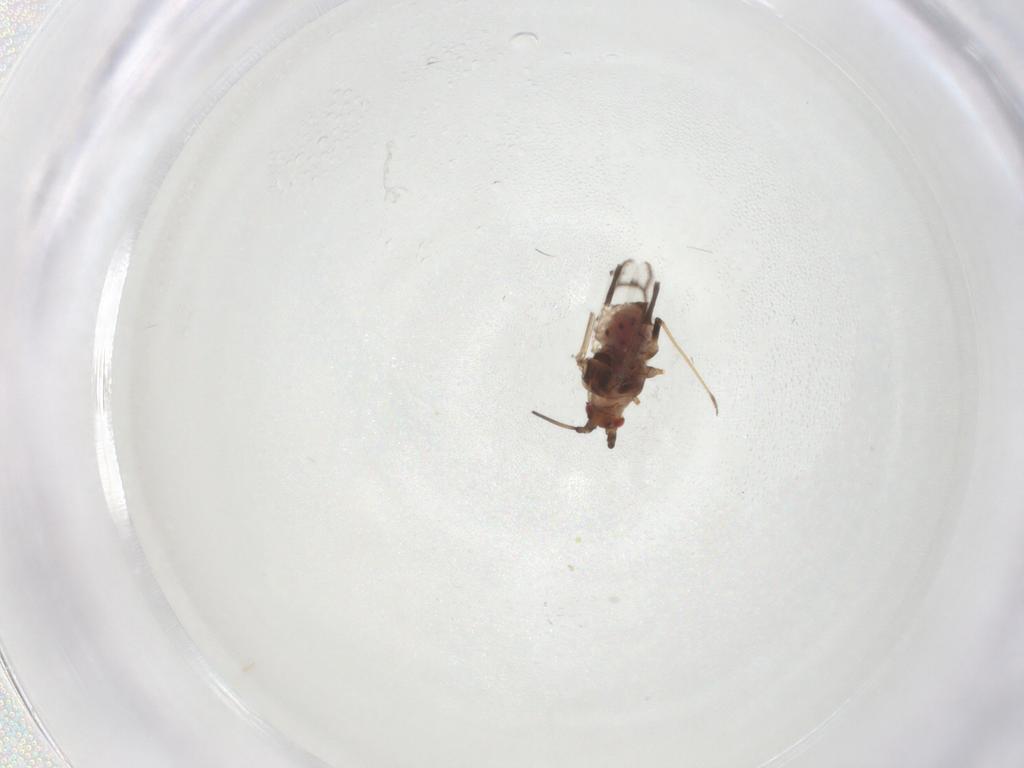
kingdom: Animalia
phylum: Arthropoda
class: Insecta
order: Hemiptera
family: Aphididae
